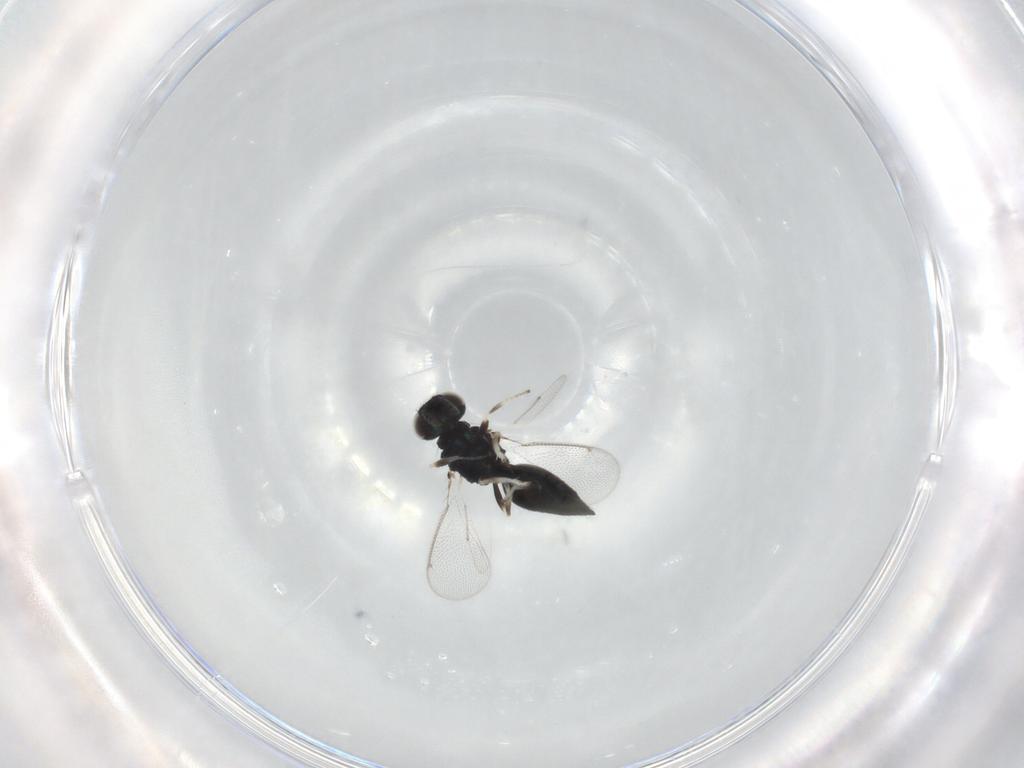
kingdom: Animalia
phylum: Arthropoda
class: Insecta
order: Hymenoptera
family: Eulophidae
